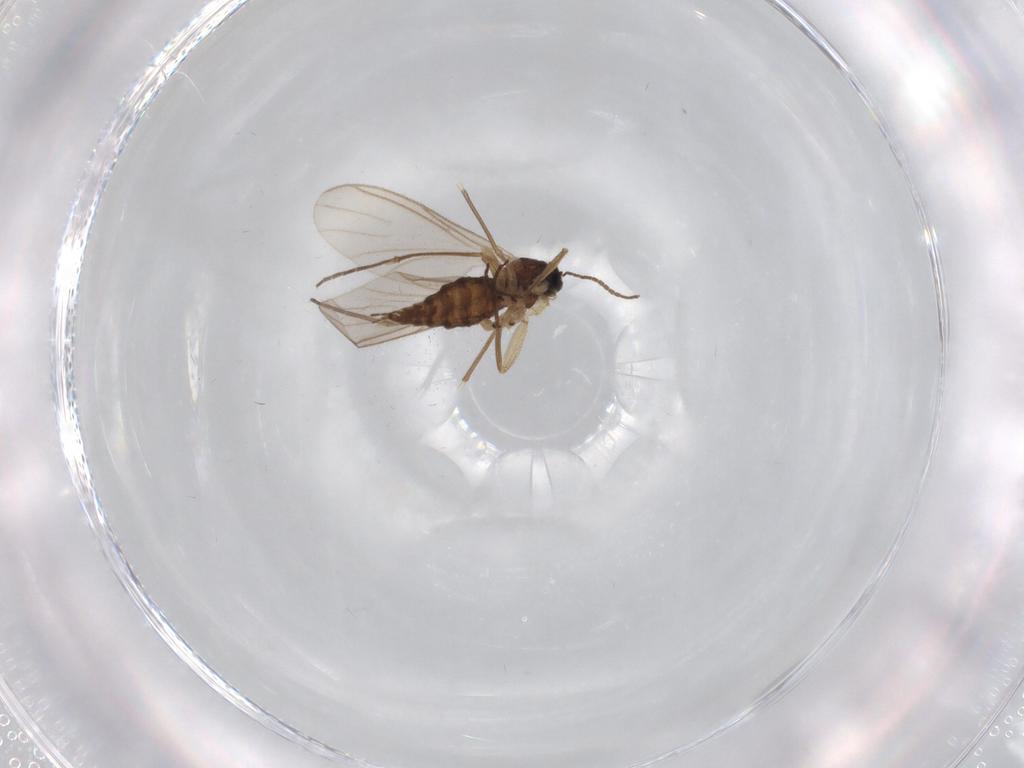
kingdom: Animalia
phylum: Arthropoda
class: Insecta
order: Diptera
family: Sciaridae
